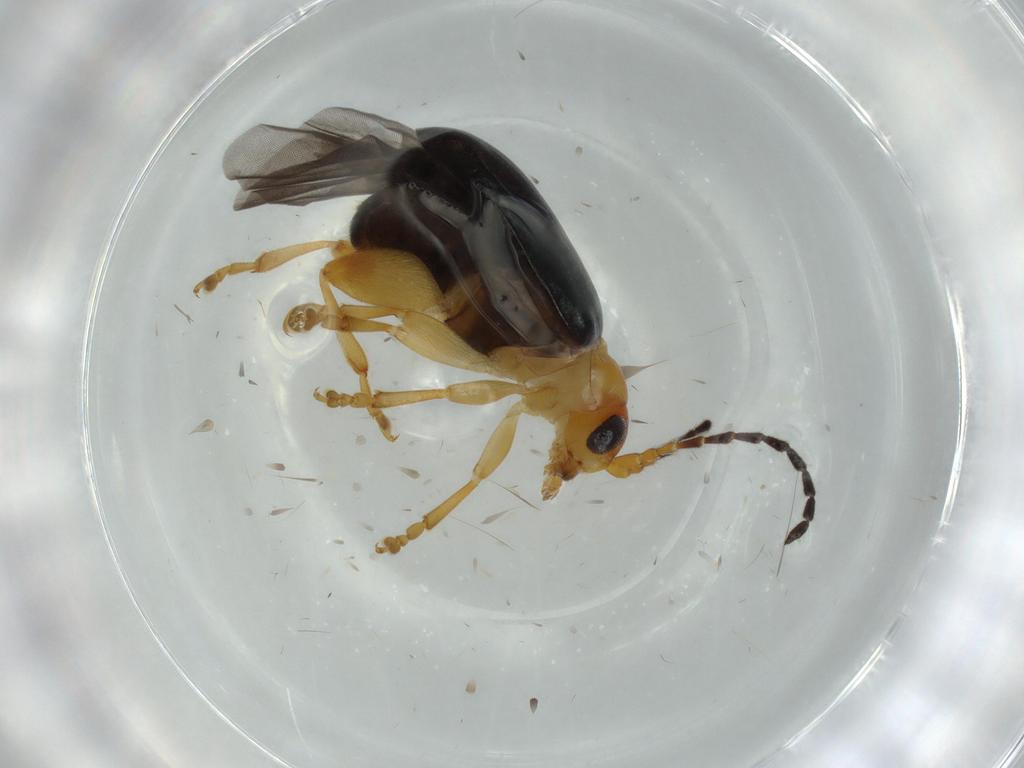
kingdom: Animalia
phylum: Arthropoda
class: Insecta
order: Coleoptera
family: Chrysomelidae
